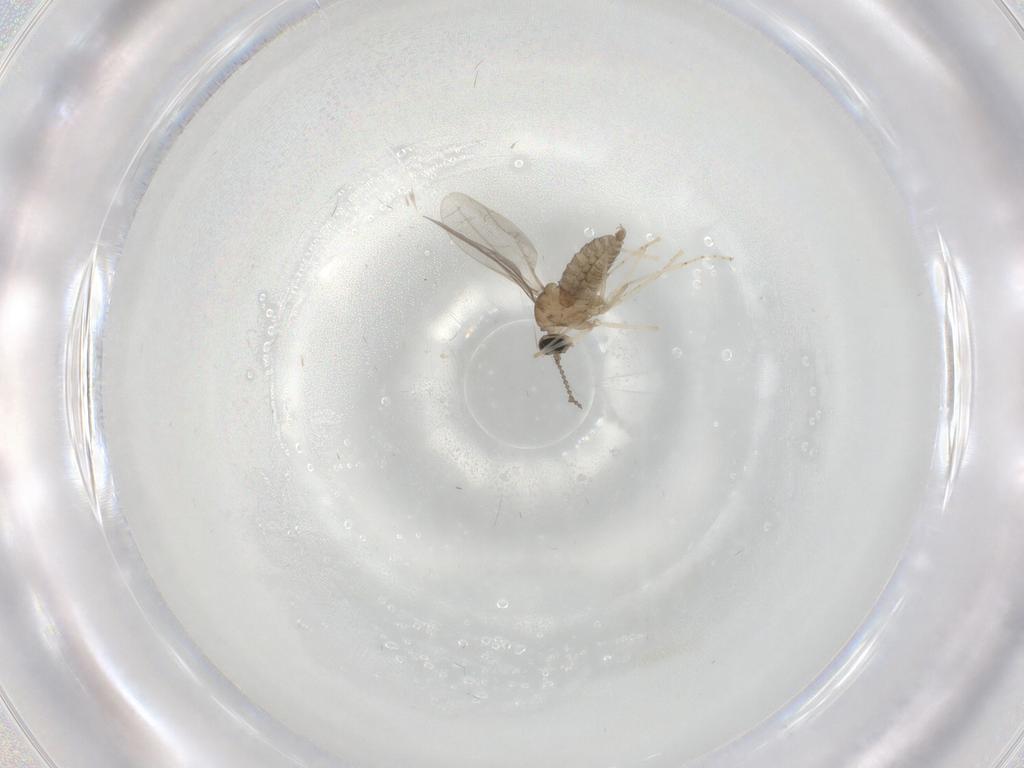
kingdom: Animalia
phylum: Arthropoda
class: Insecta
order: Diptera
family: Cecidomyiidae
